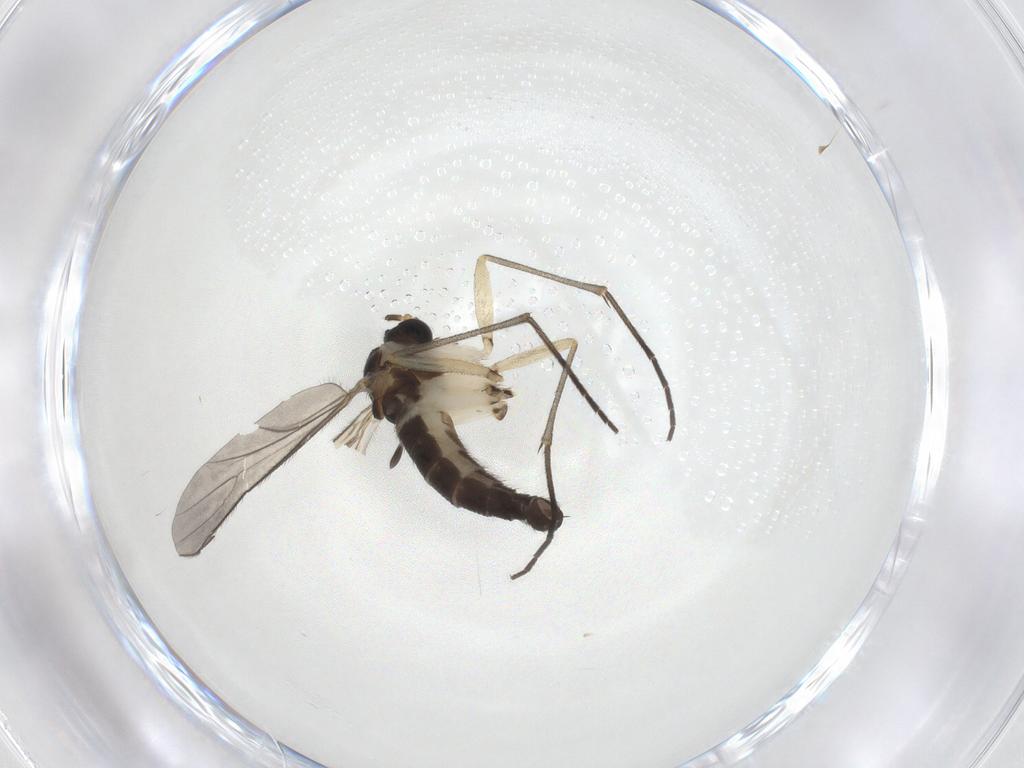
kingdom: Animalia
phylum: Arthropoda
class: Insecta
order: Diptera
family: Sciaridae
